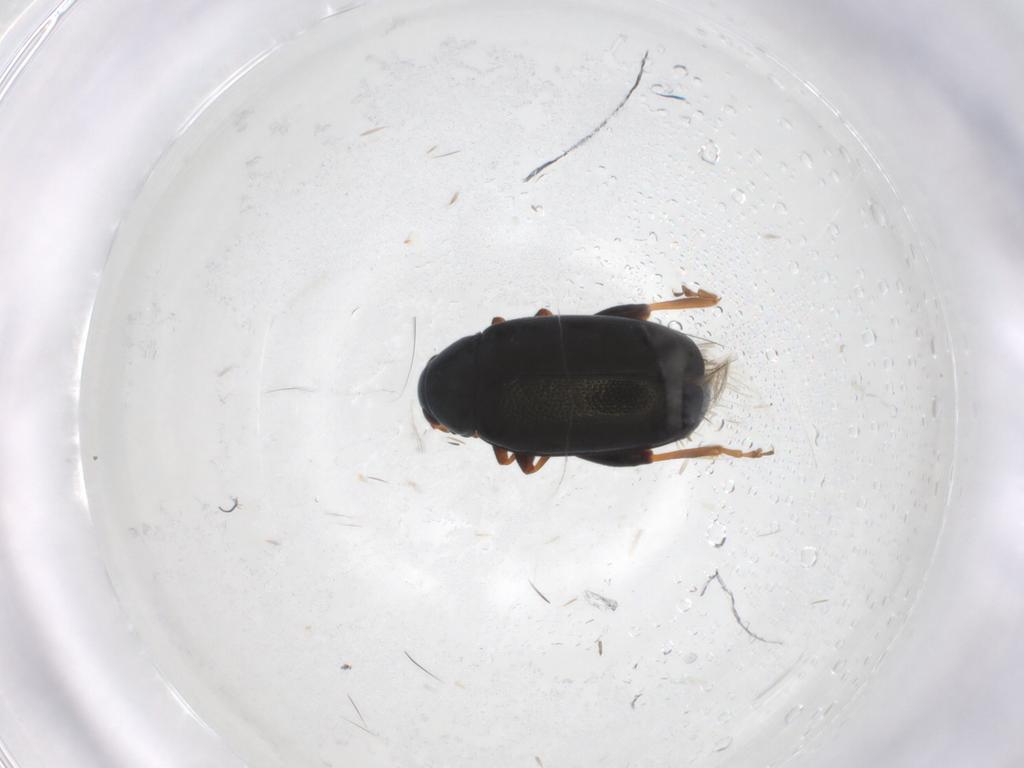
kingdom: Animalia
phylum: Arthropoda
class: Insecta
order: Coleoptera
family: Chrysomelidae
